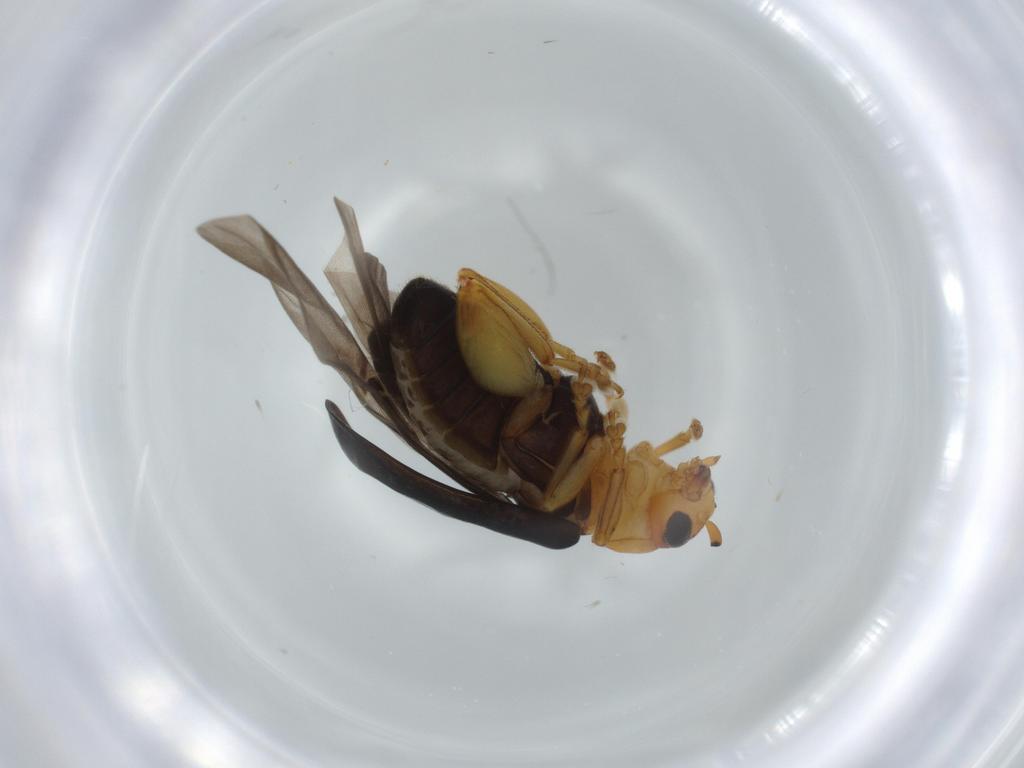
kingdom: Animalia
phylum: Arthropoda
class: Insecta
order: Coleoptera
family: Chrysomelidae
